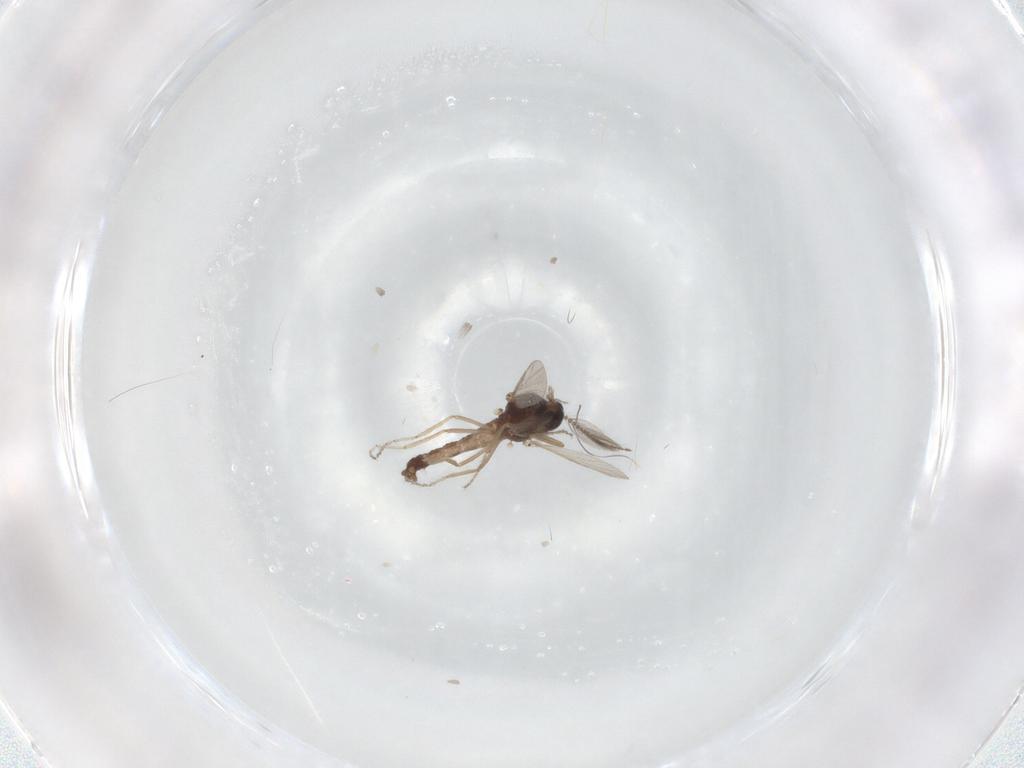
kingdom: Animalia
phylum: Arthropoda
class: Insecta
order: Diptera
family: Ceratopogonidae
